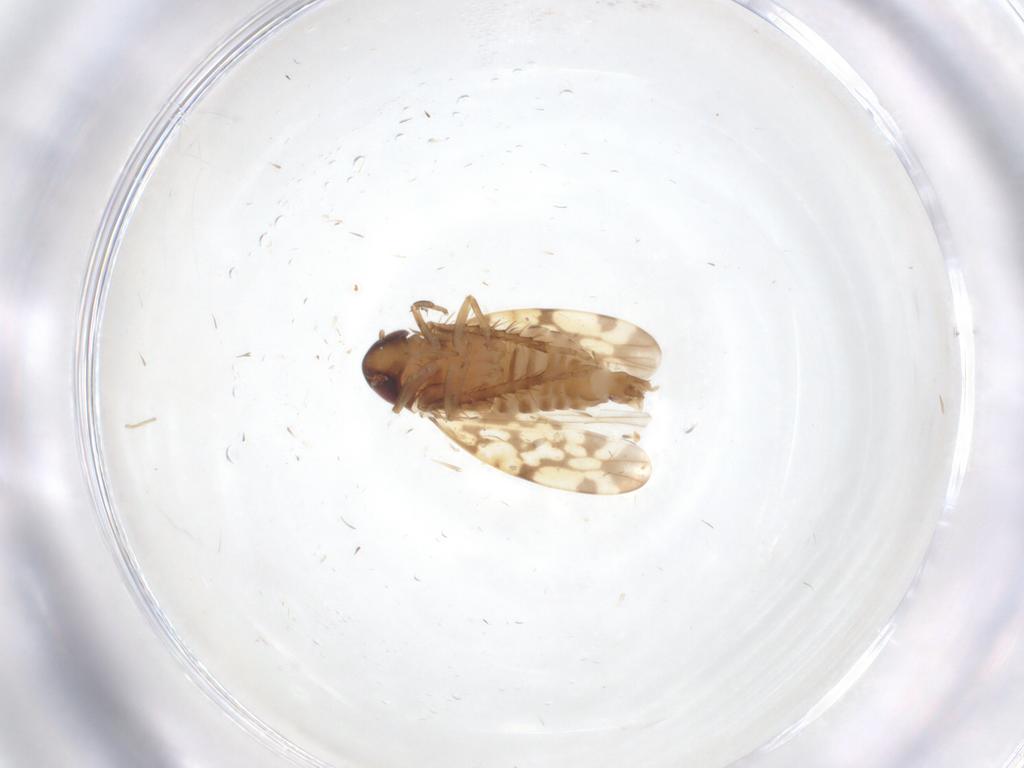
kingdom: Animalia
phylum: Arthropoda
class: Insecta
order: Hemiptera
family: Cicadellidae
